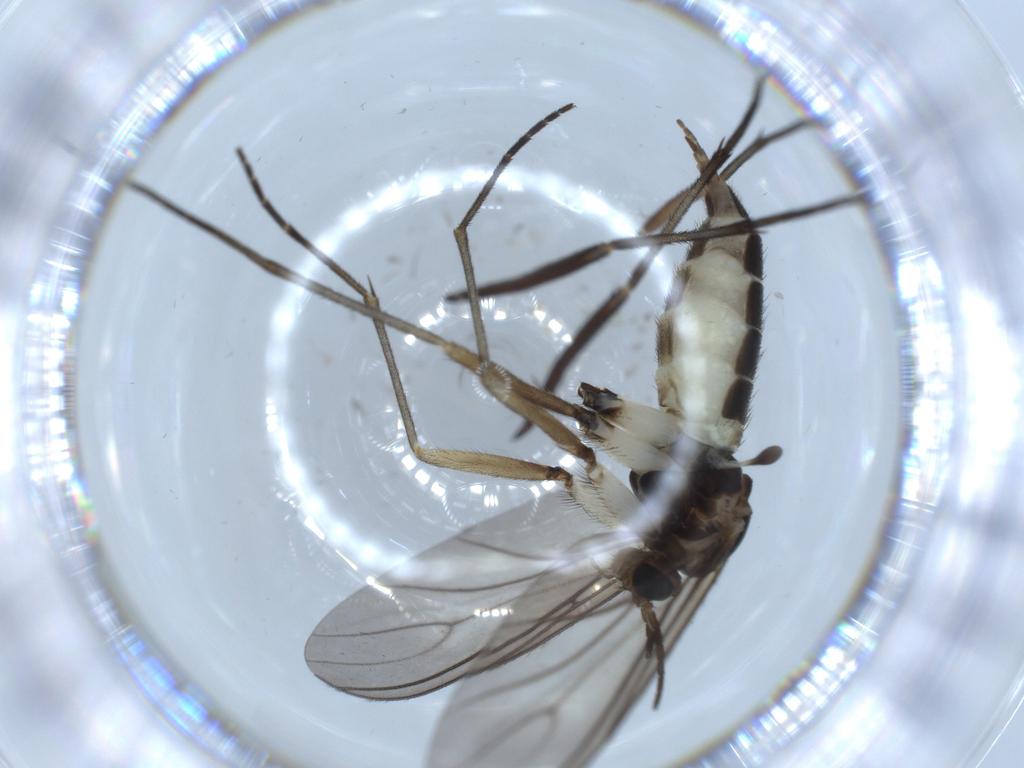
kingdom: Animalia
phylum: Arthropoda
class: Insecta
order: Diptera
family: Sciaridae
